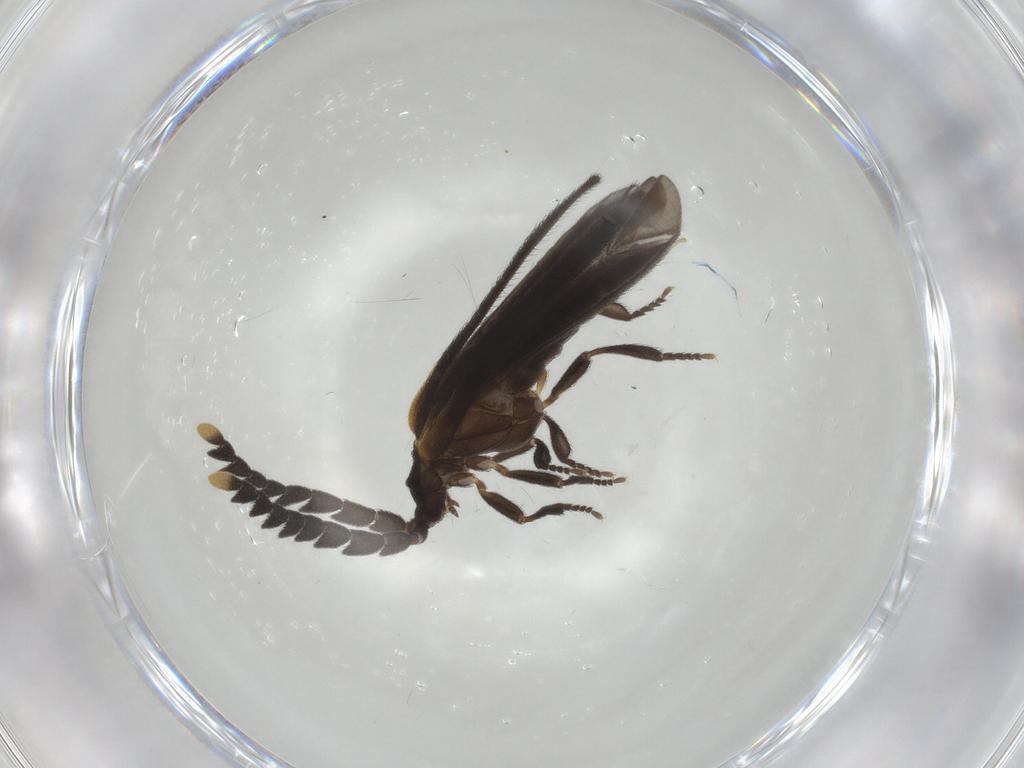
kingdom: Animalia
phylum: Arthropoda
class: Insecta
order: Coleoptera
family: Lycidae
